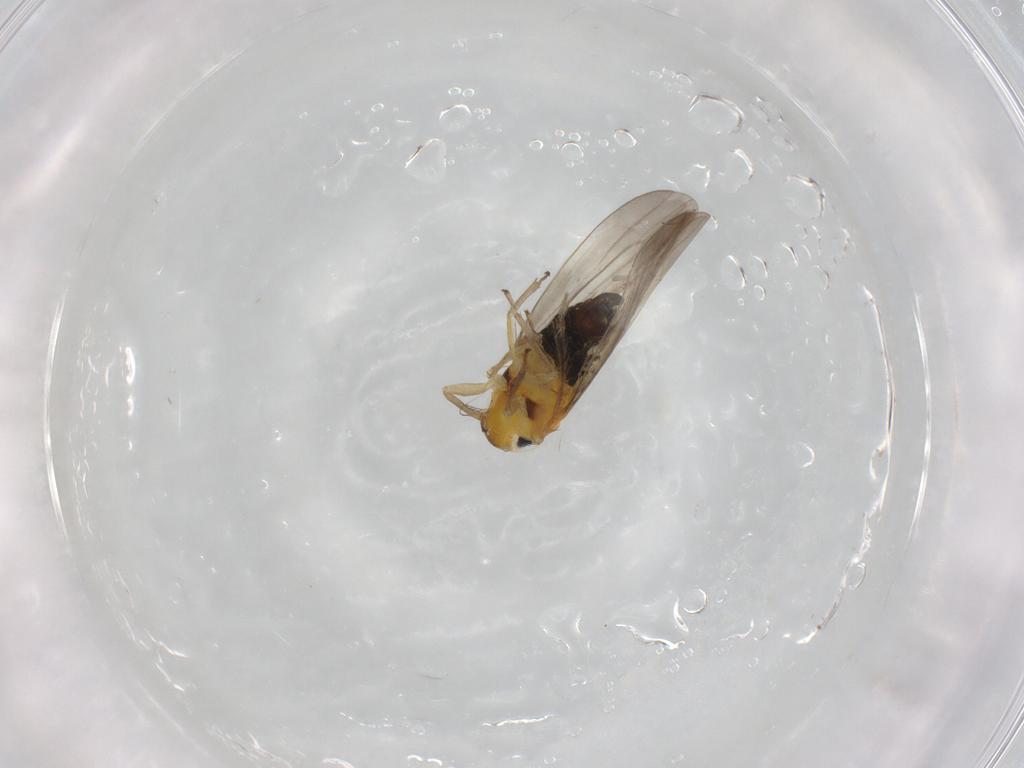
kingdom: Animalia
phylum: Arthropoda
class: Insecta
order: Hemiptera
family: Cicadellidae
